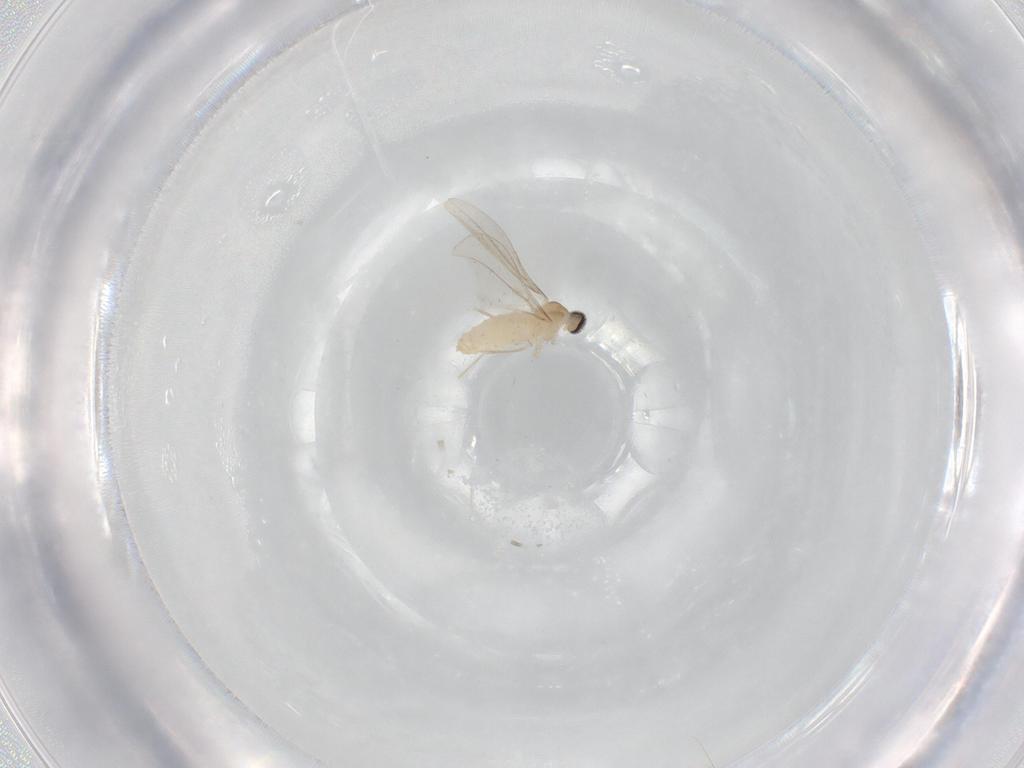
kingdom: Animalia
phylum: Arthropoda
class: Insecta
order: Diptera
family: Cecidomyiidae
